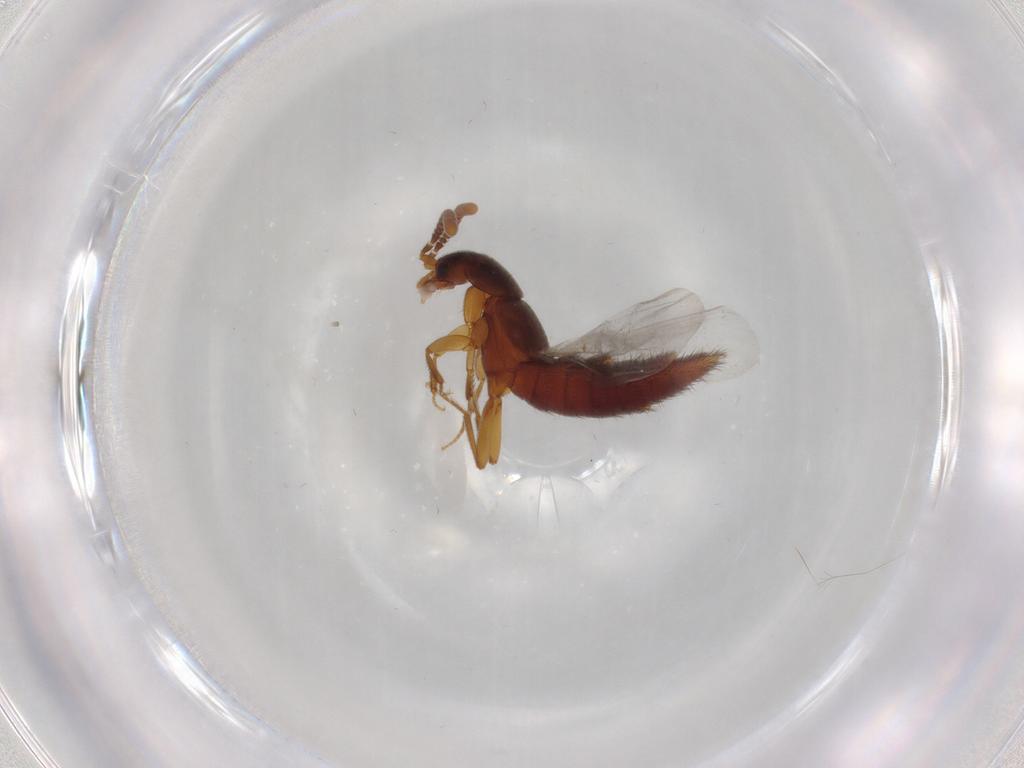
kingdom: Animalia
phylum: Arthropoda
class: Insecta
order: Coleoptera
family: Staphylinidae
